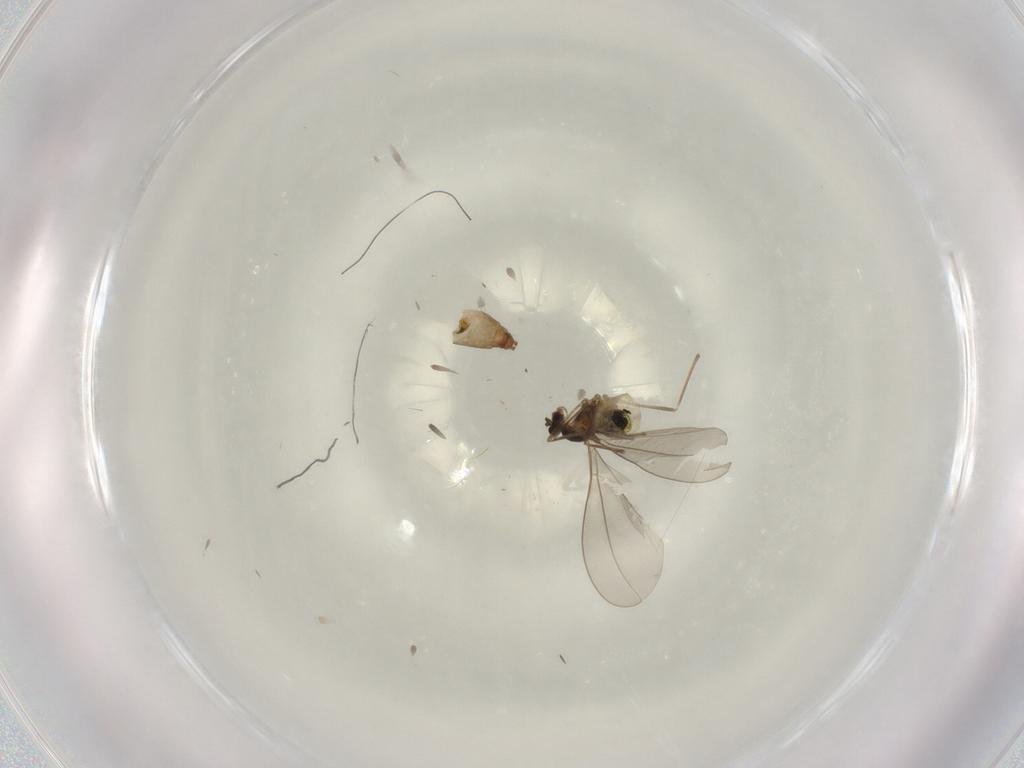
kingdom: Animalia
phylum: Arthropoda
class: Insecta
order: Diptera
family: Cecidomyiidae
